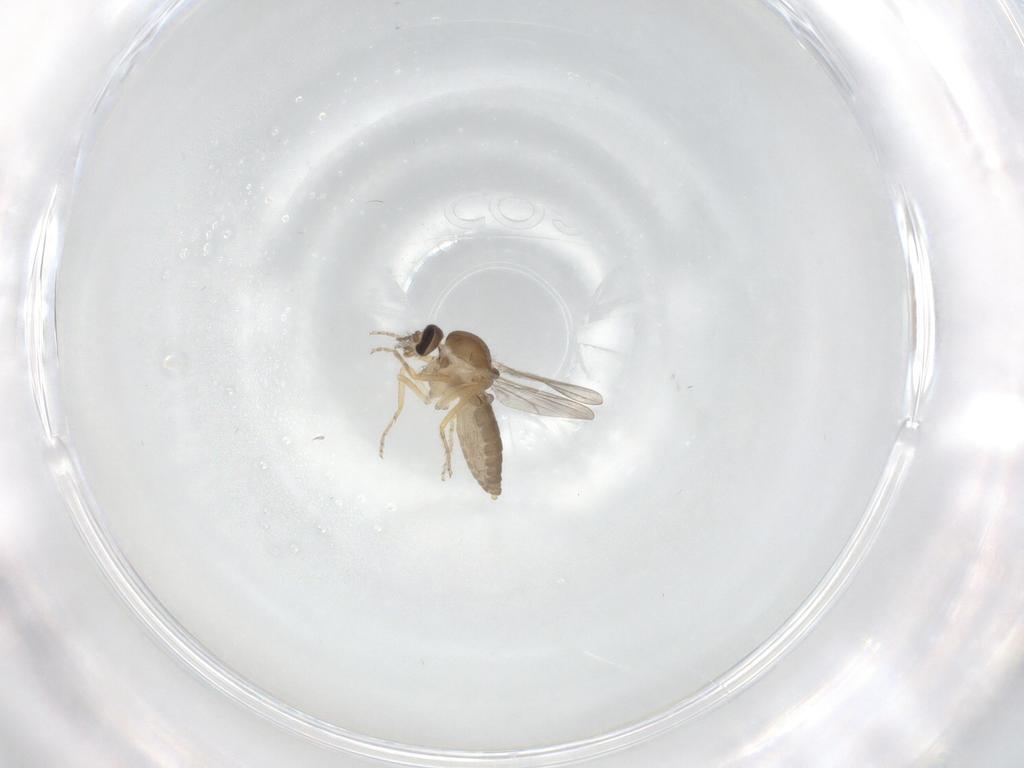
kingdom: Animalia
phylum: Arthropoda
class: Insecta
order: Diptera
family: Ceratopogonidae
